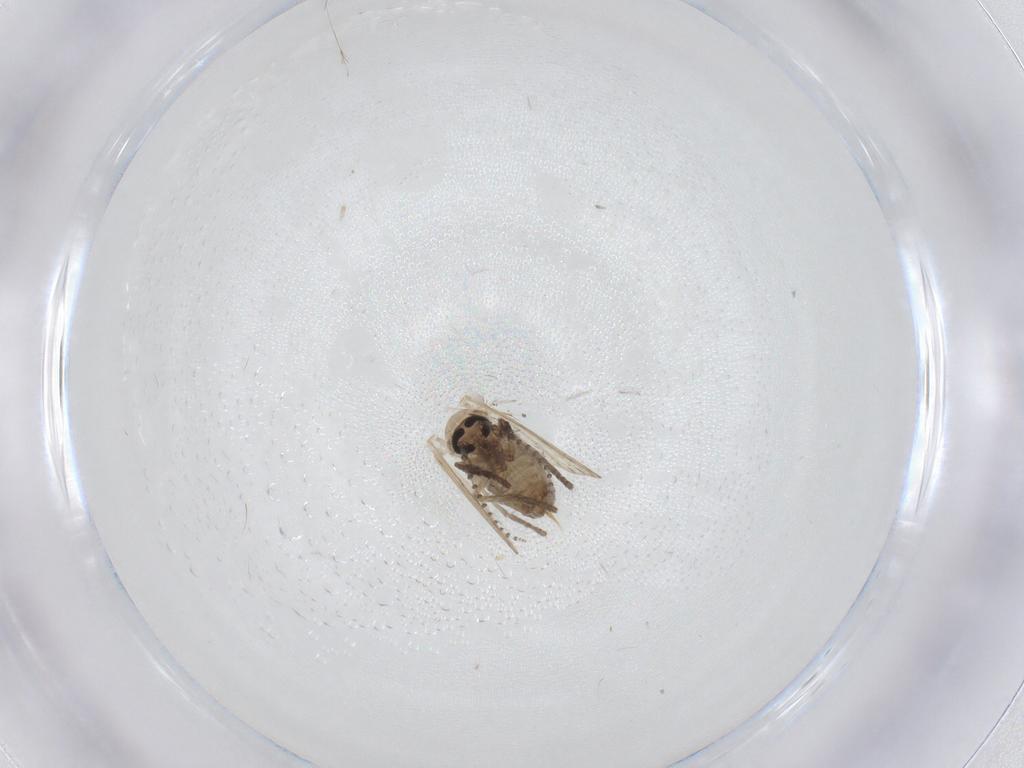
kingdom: Animalia
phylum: Arthropoda
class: Insecta
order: Diptera
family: Psychodidae
